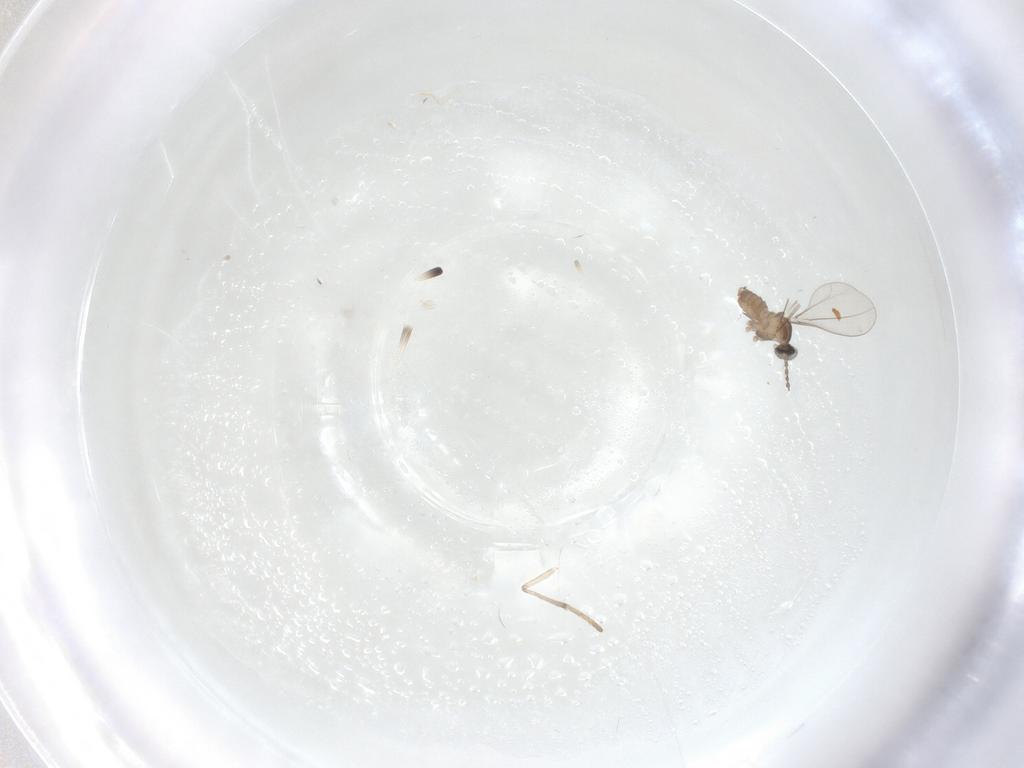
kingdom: Animalia
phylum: Arthropoda
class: Insecta
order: Diptera
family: Cecidomyiidae
